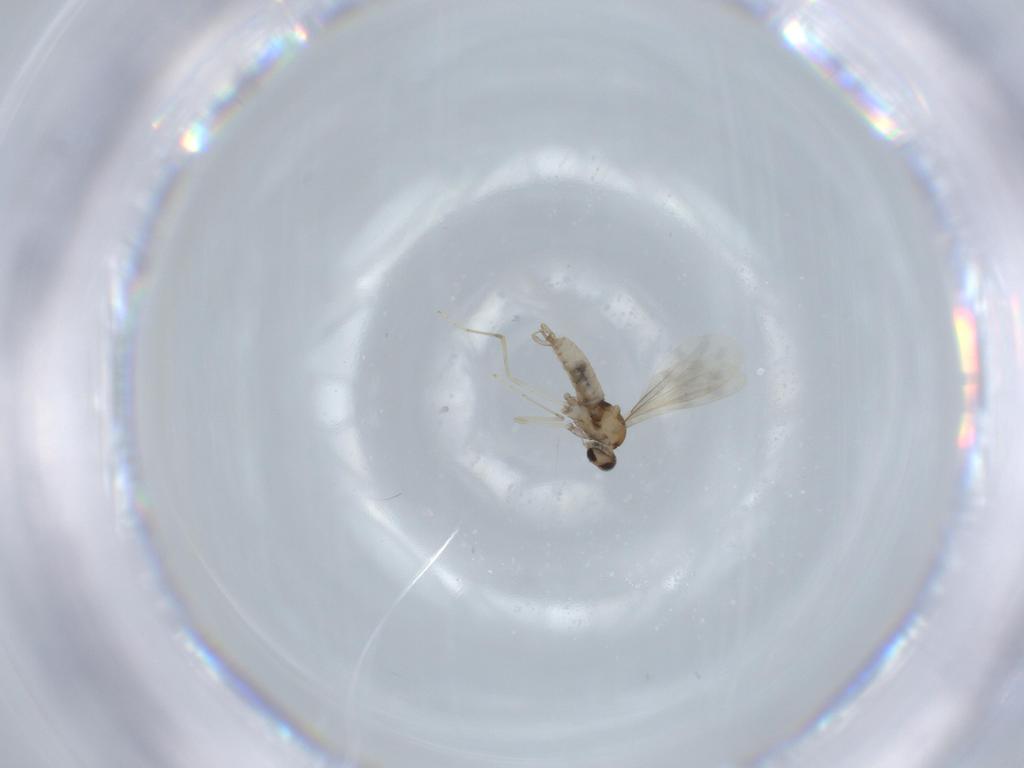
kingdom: Animalia
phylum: Arthropoda
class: Insecta
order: Diptera
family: Cecidomyiidae
